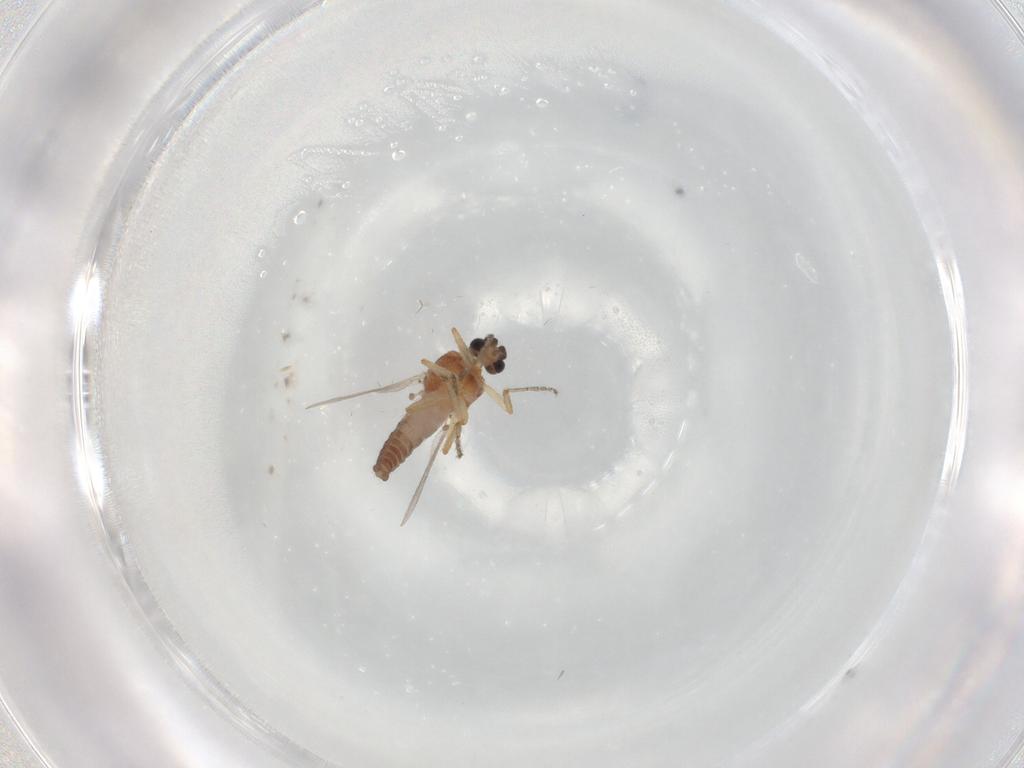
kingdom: Animalia
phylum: Arthropoda
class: Insecta
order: Diptera
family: Ceratopogonidae
